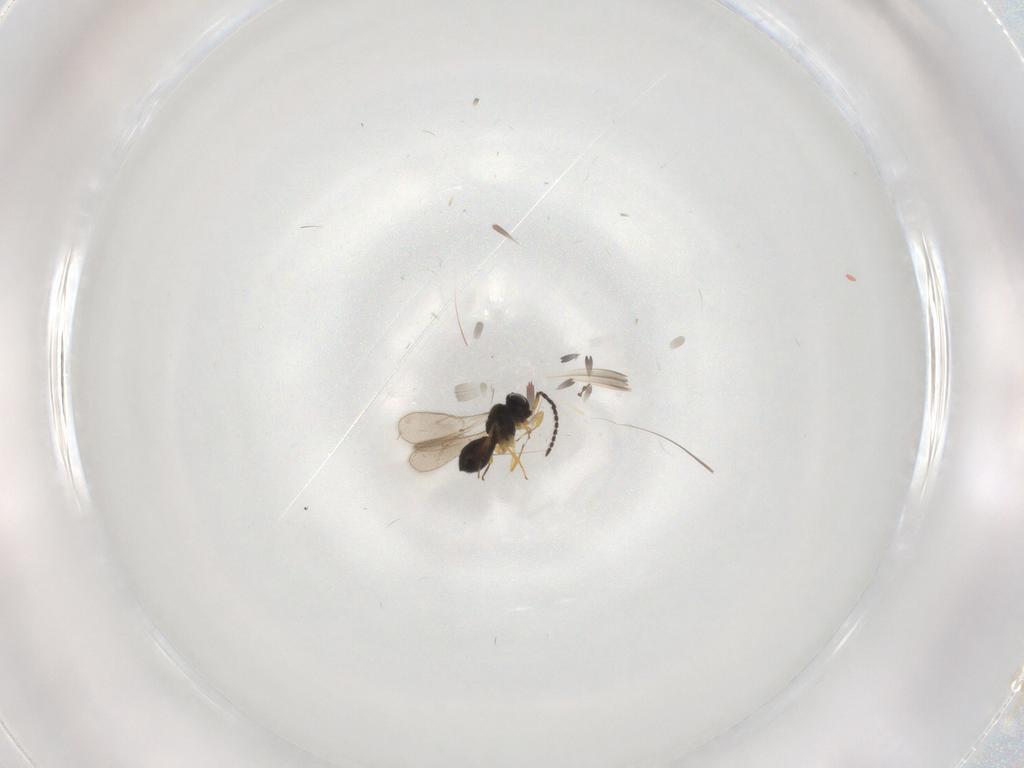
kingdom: Animalia
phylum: Arthropoda
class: Insecta
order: Hymenoptera
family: Scelionidae
